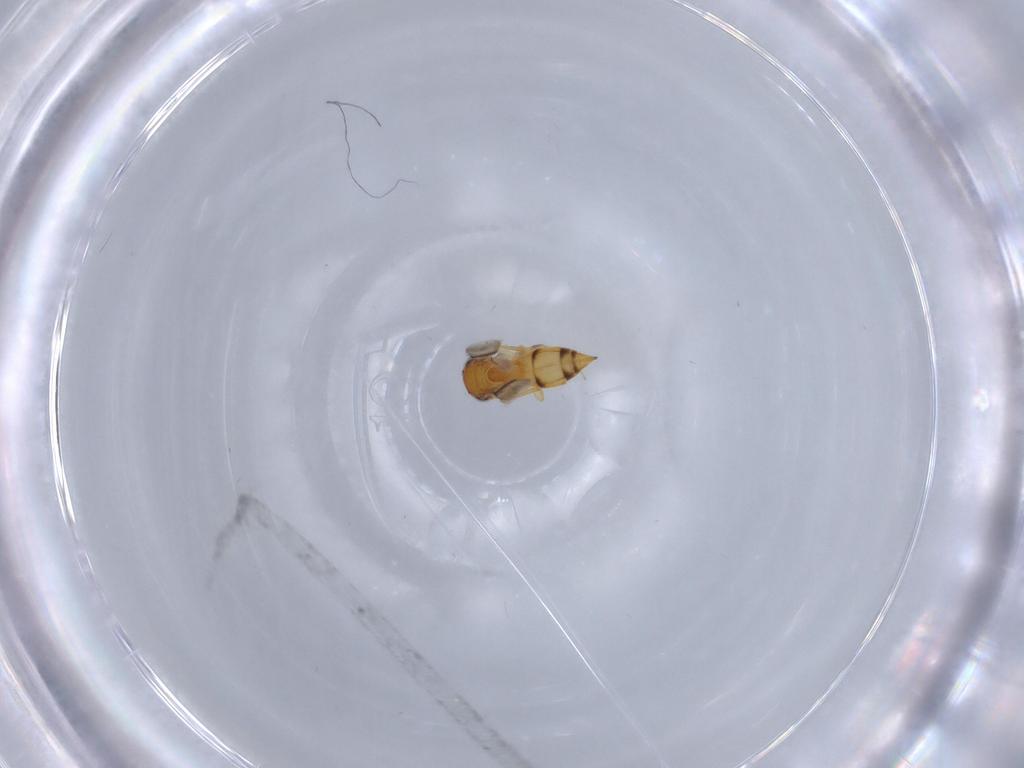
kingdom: Animalia
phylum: Arthropoda
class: Insecta
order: Hymenoptera
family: Scelionidae
